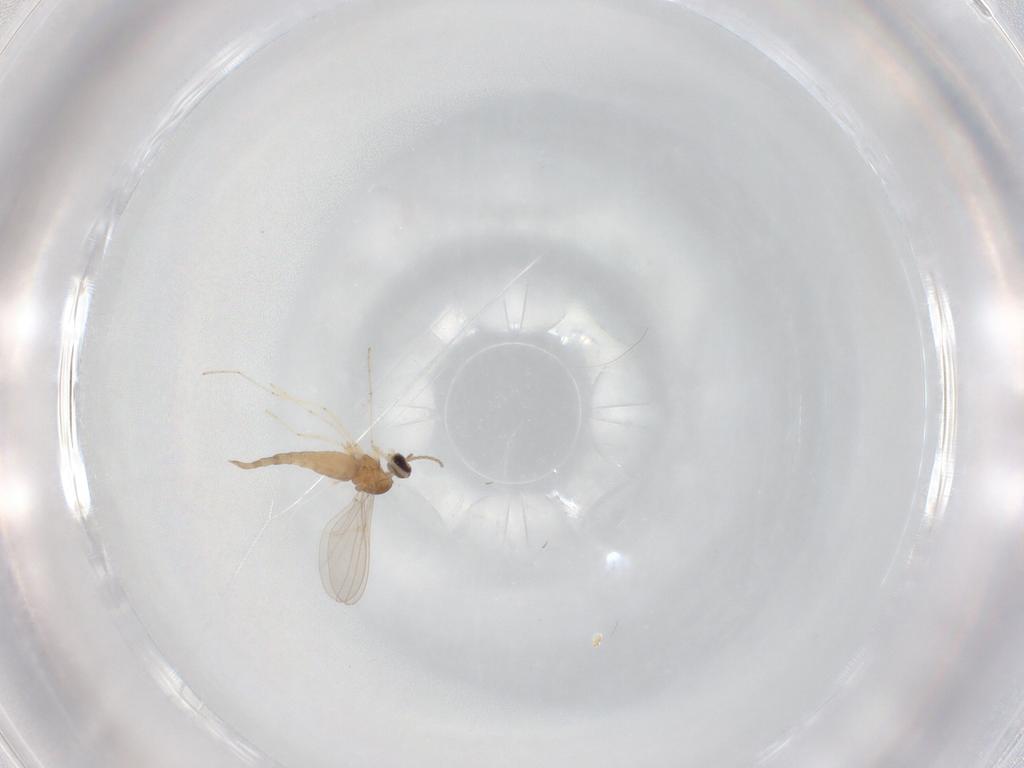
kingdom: Animalia
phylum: Arthropoda
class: Insecta
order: Diptera
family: Cecidomyiidae
